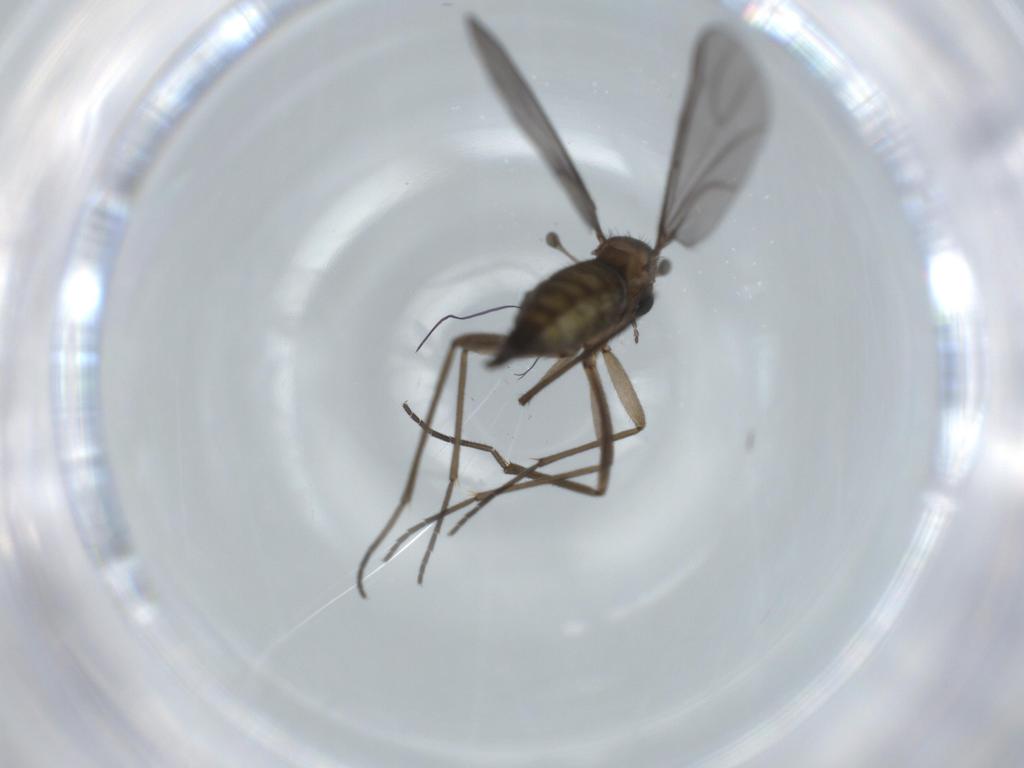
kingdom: Animalia
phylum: Arthropoda
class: Insecta
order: Diptera
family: Sciaridae
